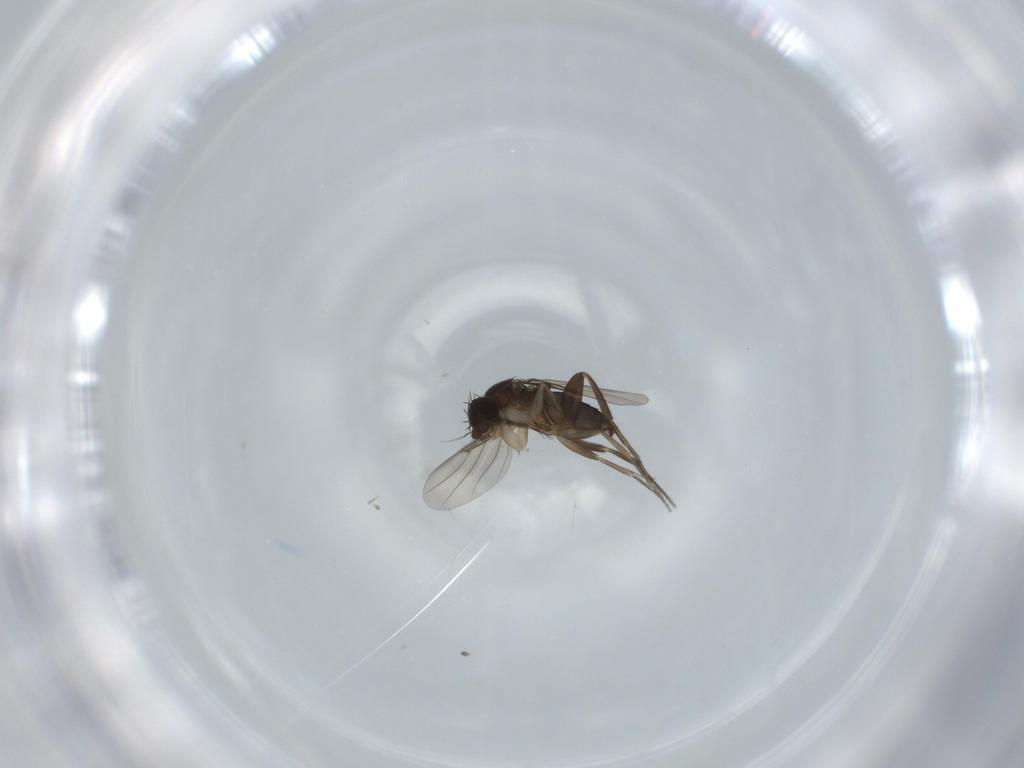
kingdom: Animalia
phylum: Arthropoda
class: Insecta
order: Diptera
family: Phoridae
